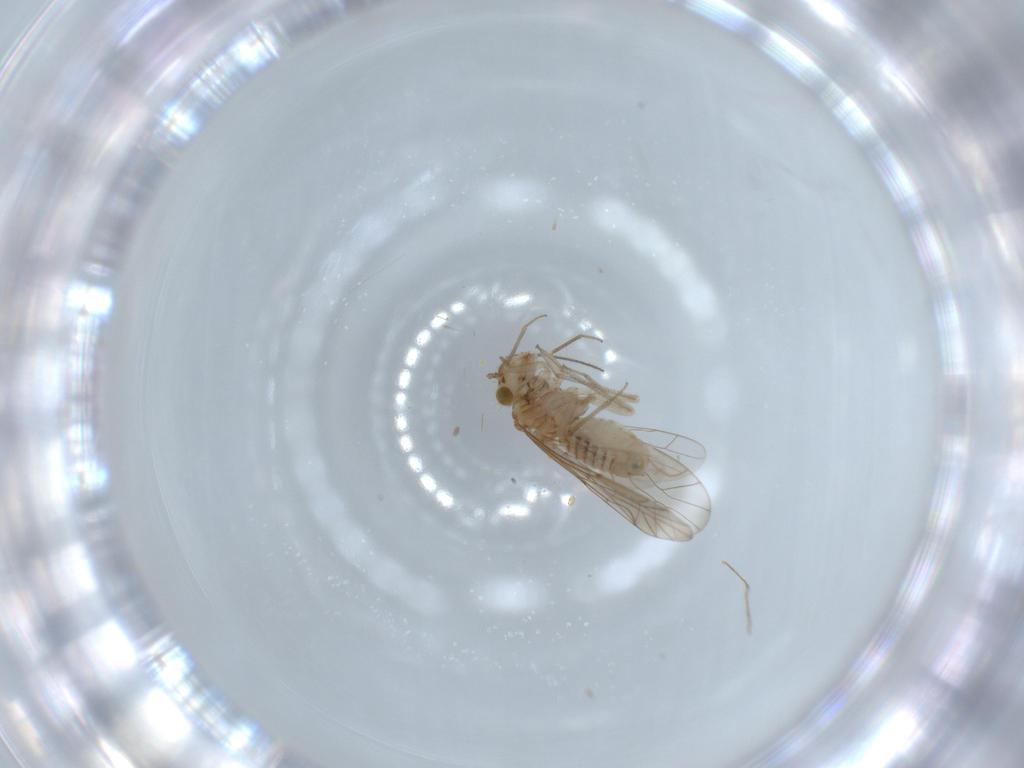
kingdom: Animalia
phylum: Arthropoda
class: Insecta
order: Psocodea
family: Lachesillidae
